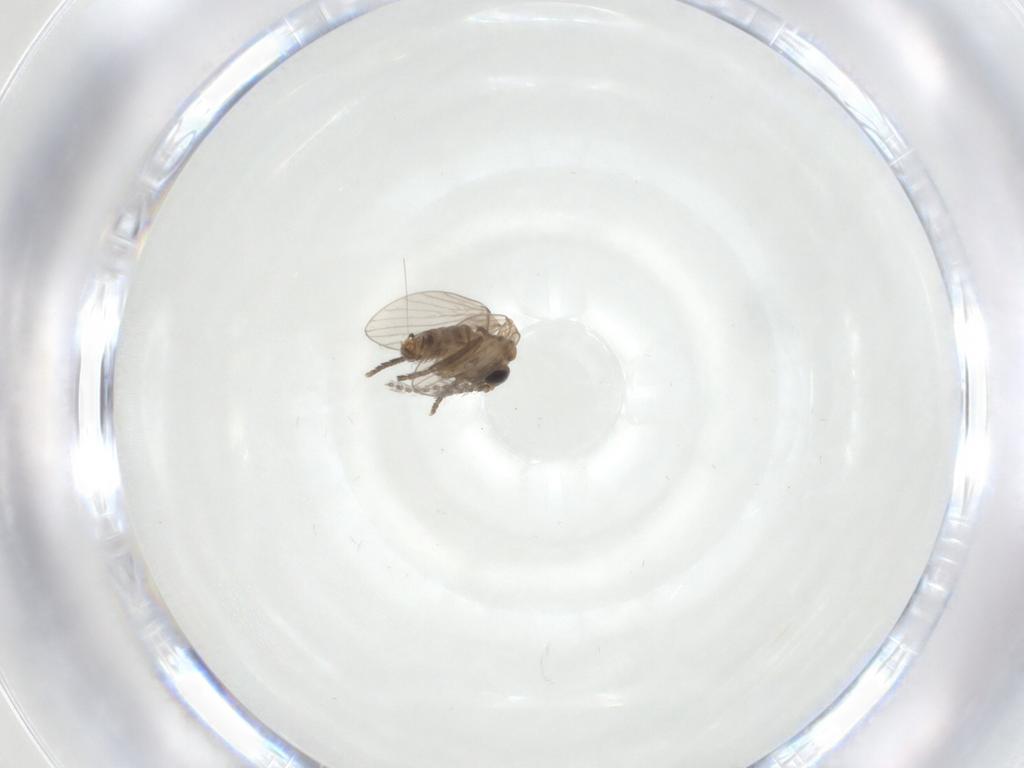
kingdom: Animalia
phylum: Arthropoda
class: Insecta
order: Diptera
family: Psychodidae
